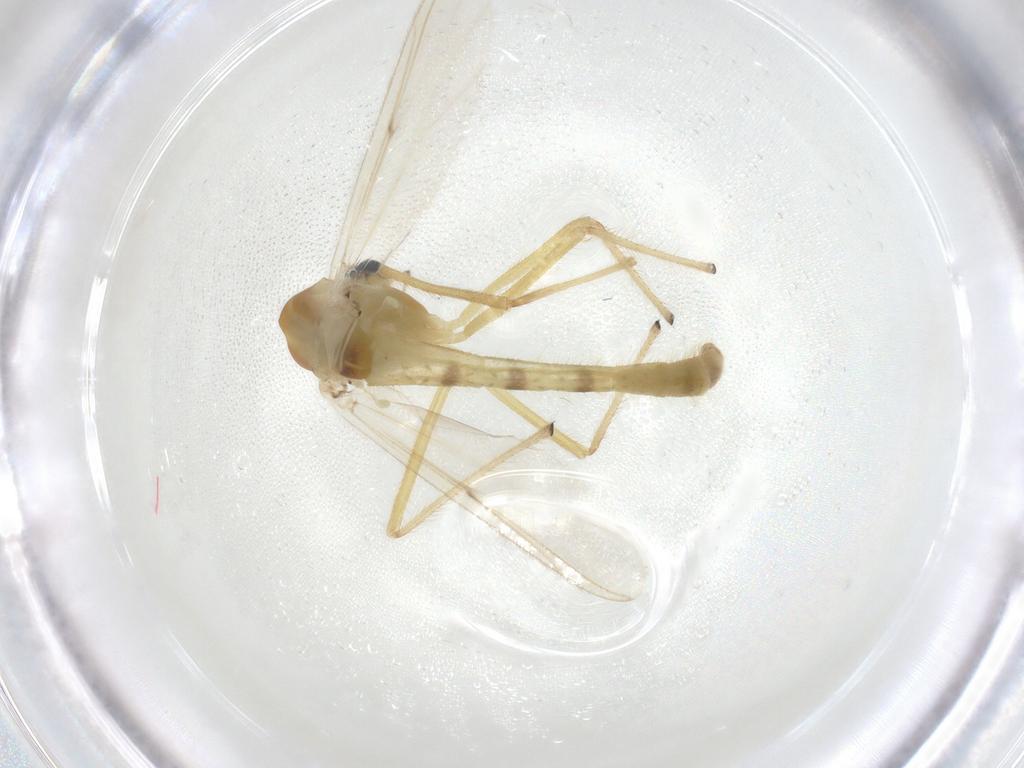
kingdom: Animalia
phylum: Arthropoda
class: Insecta
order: Diptera
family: Chironomidae
